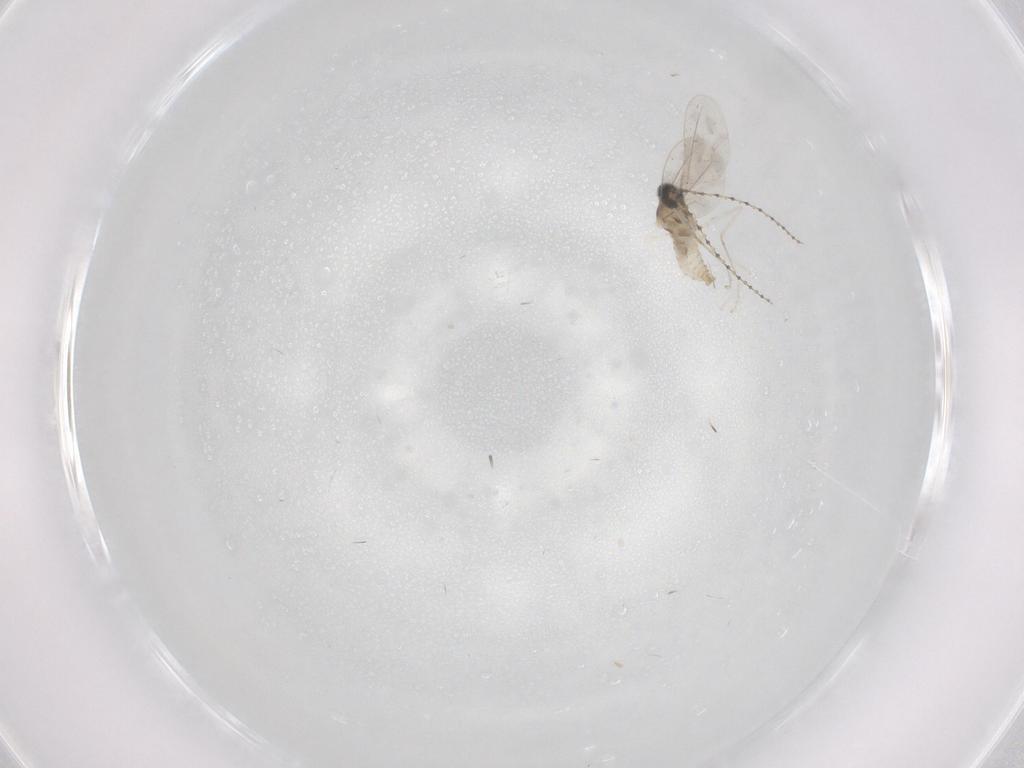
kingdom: Animalia
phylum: Arthropoda
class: Insecta
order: Diptera
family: Cecidomyiidae
